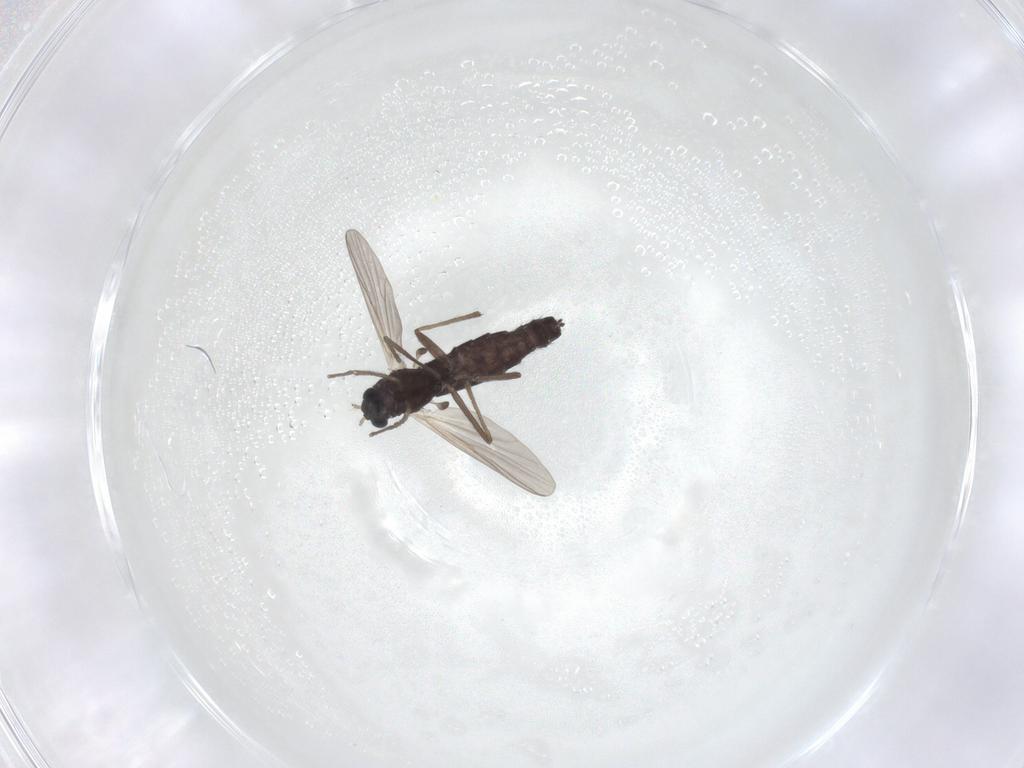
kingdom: Animalia
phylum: Arthropoda
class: Insecta
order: Diptera
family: Chironomidae
